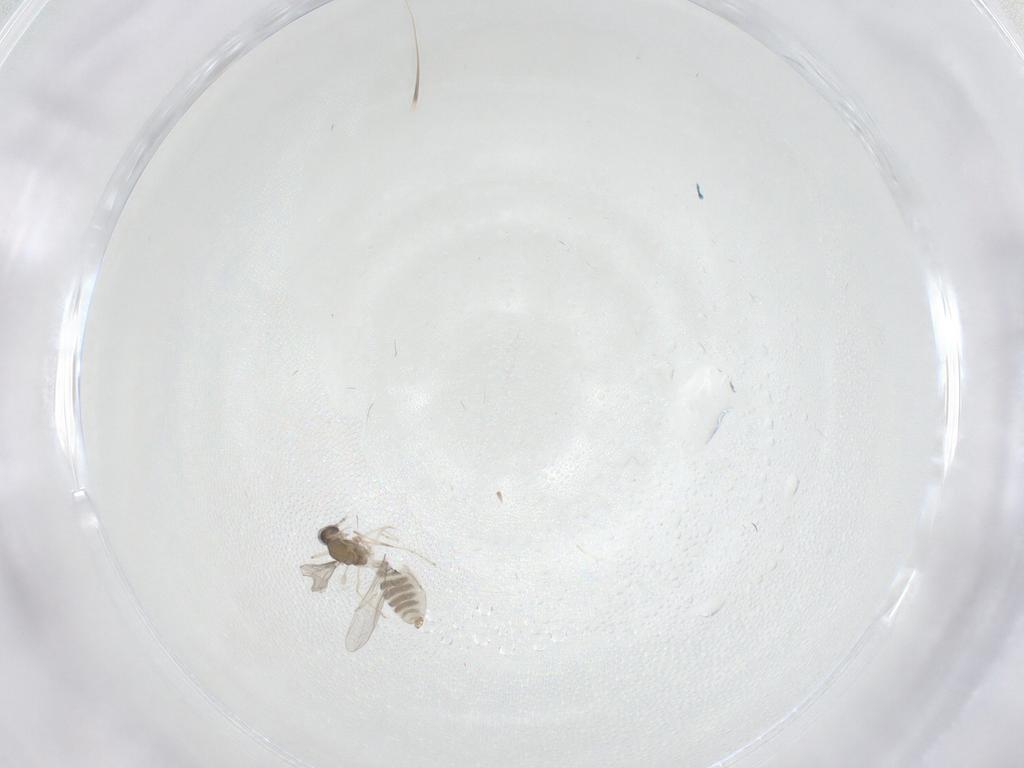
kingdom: Animalia
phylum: Arthropoda
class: Insecta
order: Diptera
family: Cecidomyiidae
